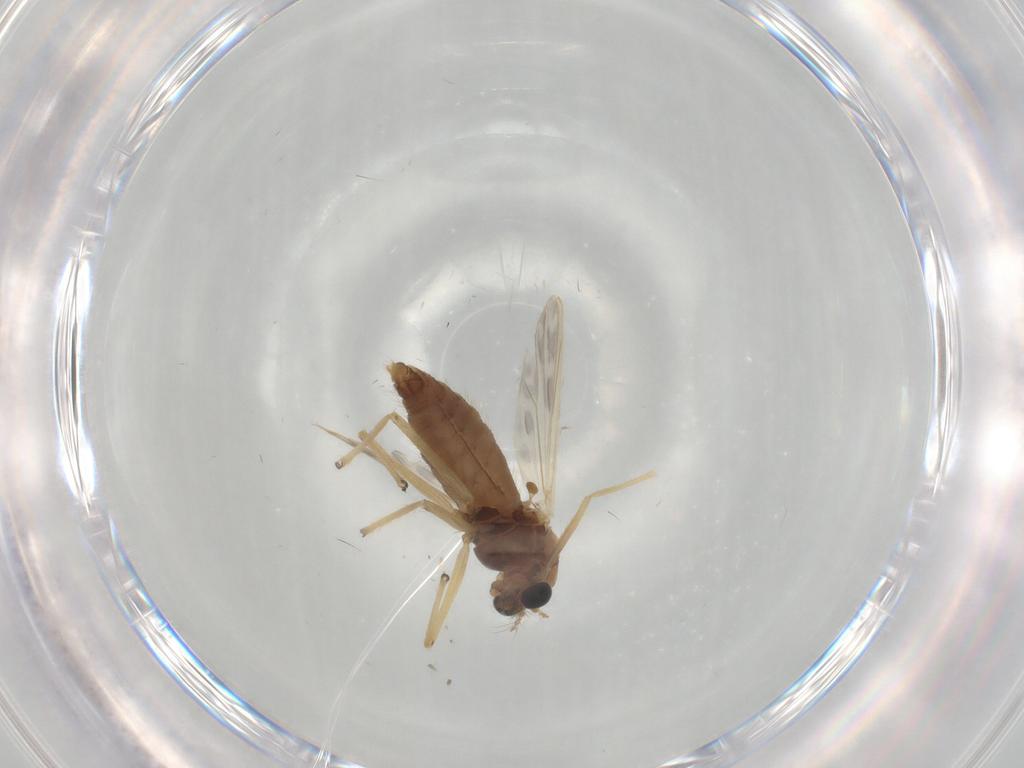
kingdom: Animalia
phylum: Arthropoda
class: Insecta
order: Diptera
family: Chironomidae
